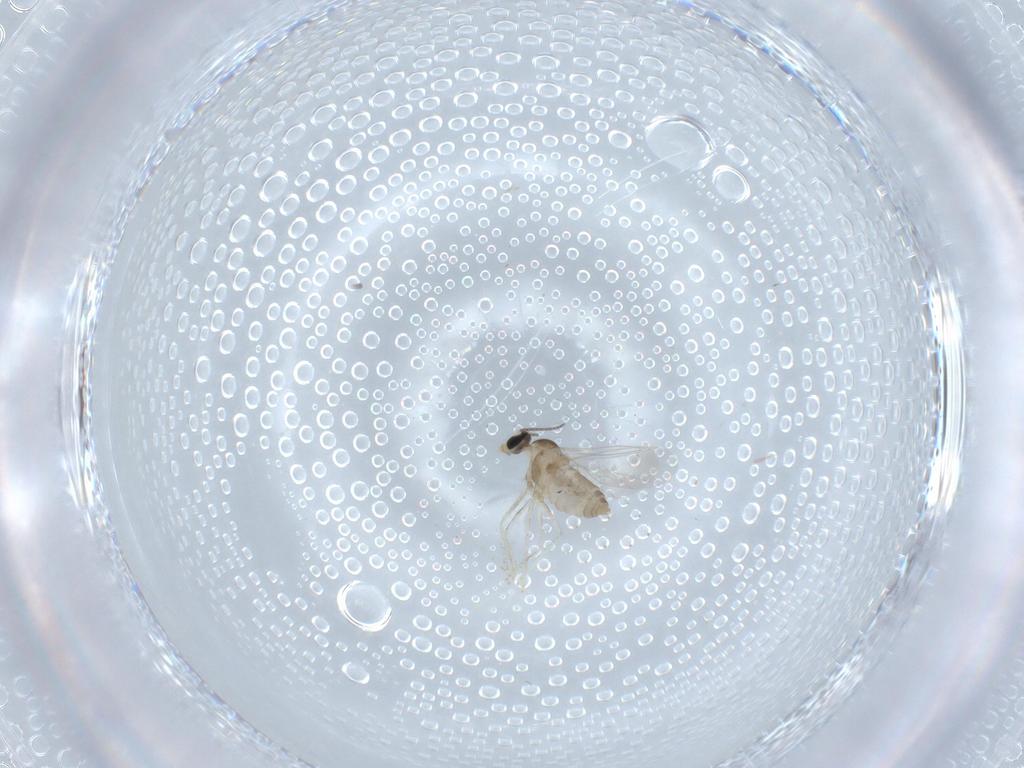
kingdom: Animalia
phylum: Arthropoda
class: Insecta
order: Diptera
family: Cecidomyiidae
